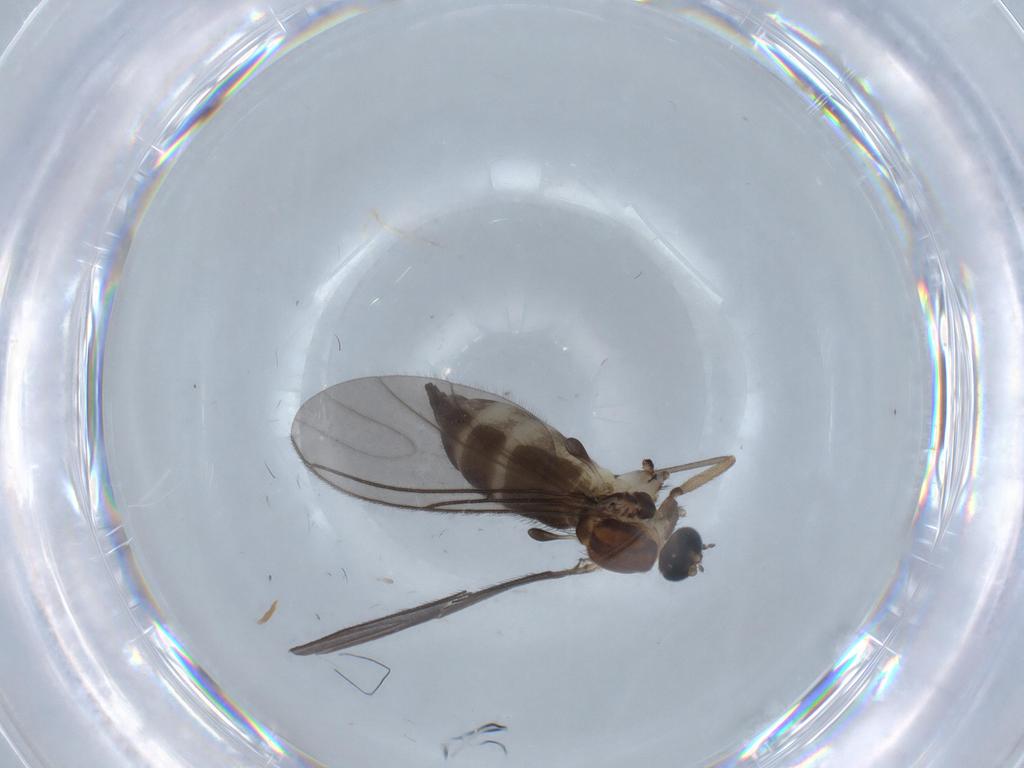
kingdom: Animalia
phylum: Arthropoda
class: Insecta
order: Diptera
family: Sciaridae
